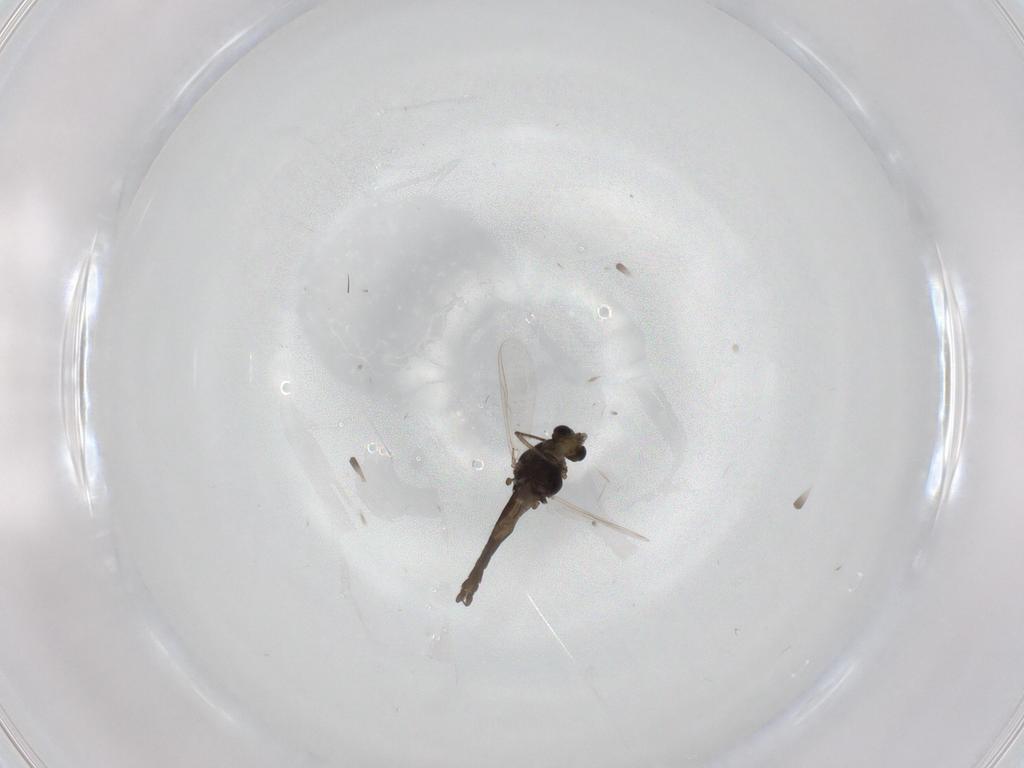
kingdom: Animalia
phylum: Arthropoda
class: Insecta
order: Diptera
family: Chironomidae
